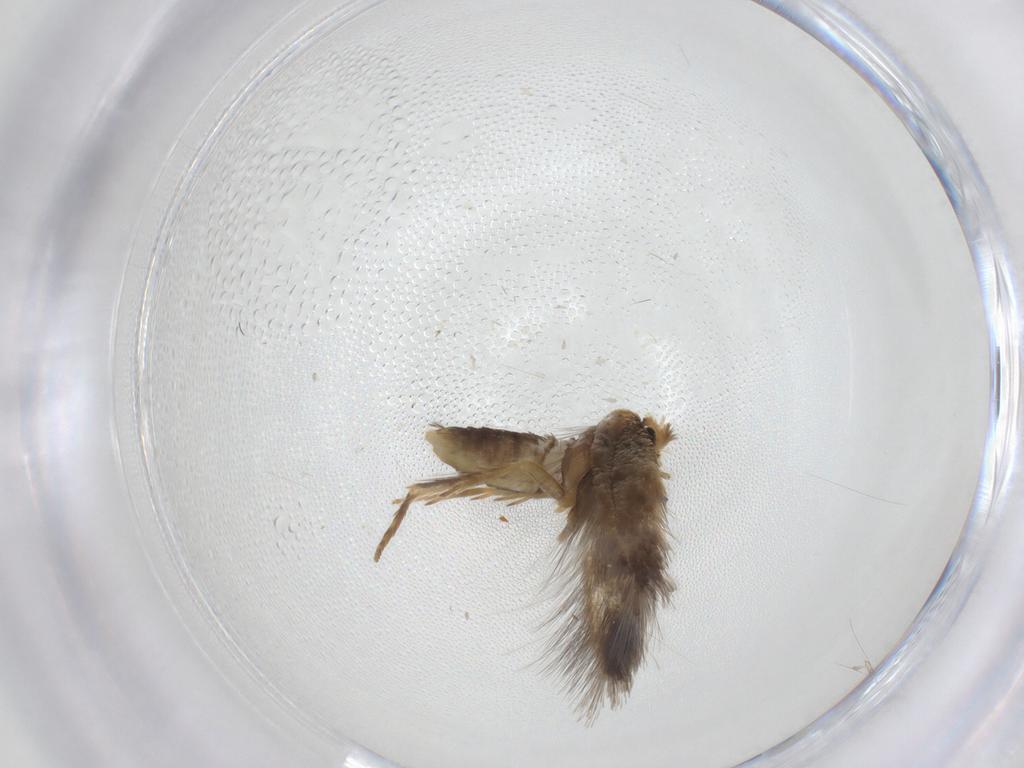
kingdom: Animalia
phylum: Arthropoda
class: Insecta
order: Lepidoptera
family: Nepticulidae
